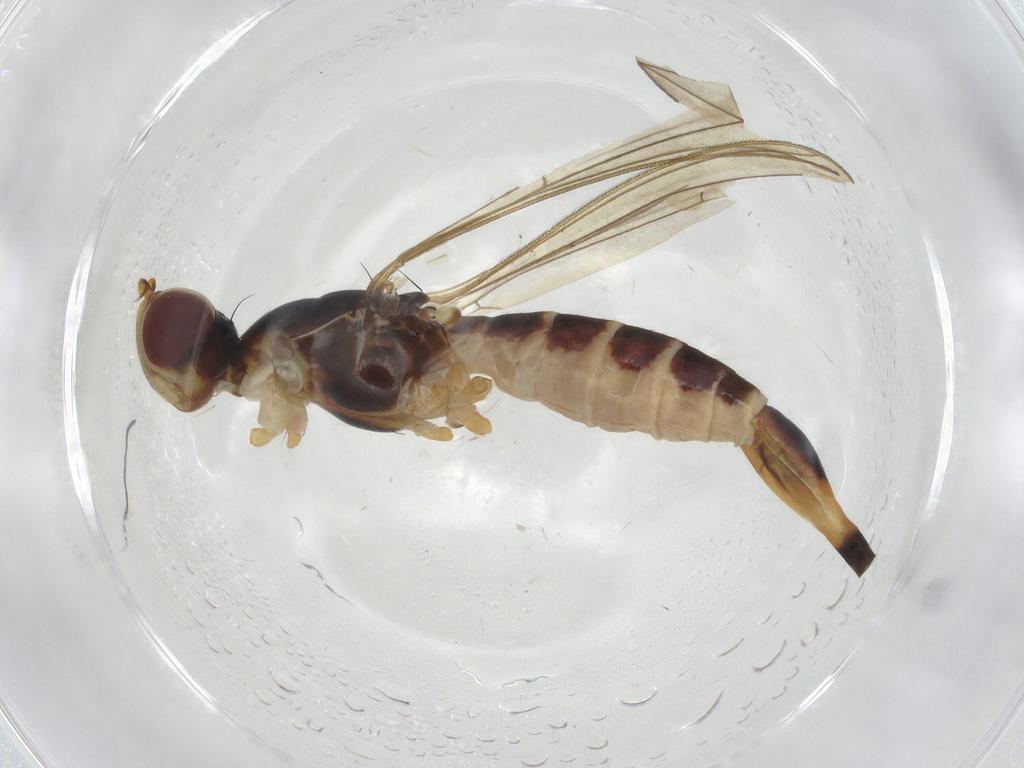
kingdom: Animalia
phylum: Arthropoda
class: Insecta
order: Diptera
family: Micropezidae
